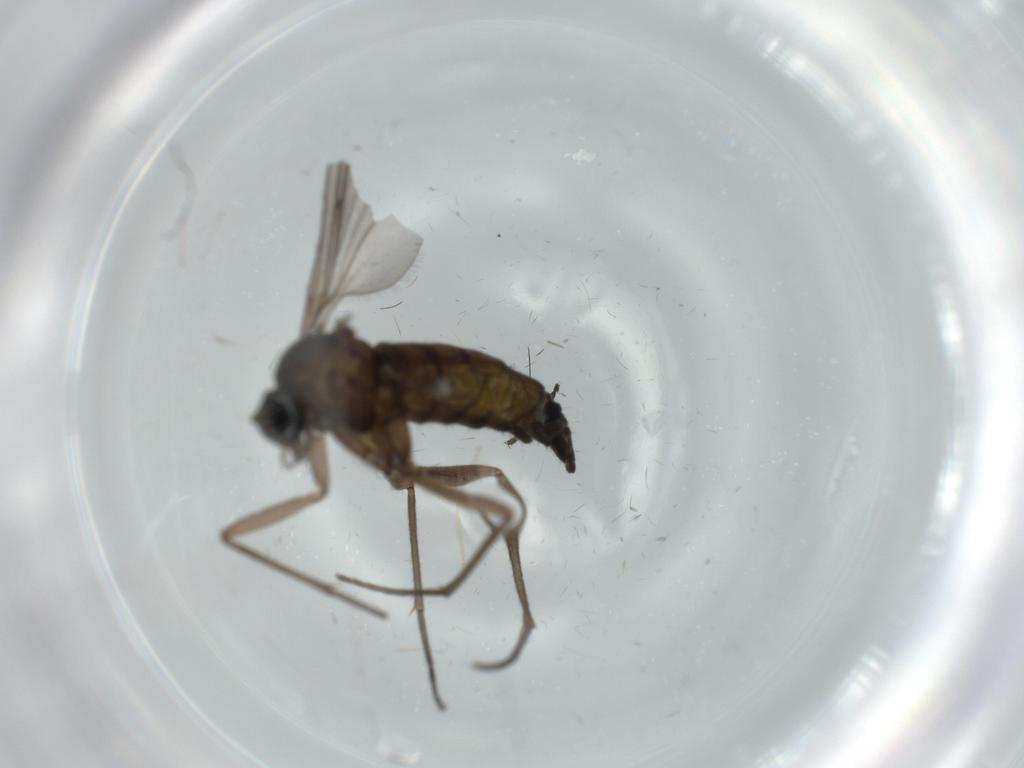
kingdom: Animalia
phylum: Arthropoda
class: Insecta
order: Diptera
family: Sciaridae
